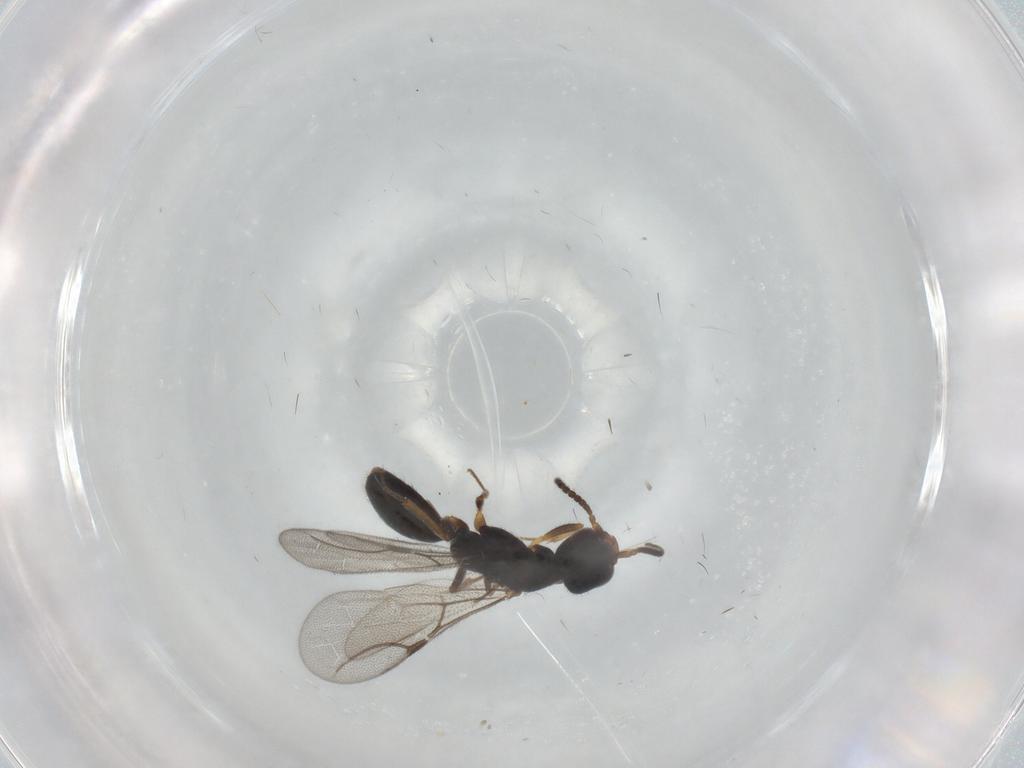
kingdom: Animalia
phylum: Arthropoda
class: Insecta
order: Hymenoptera
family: Bethylidae
